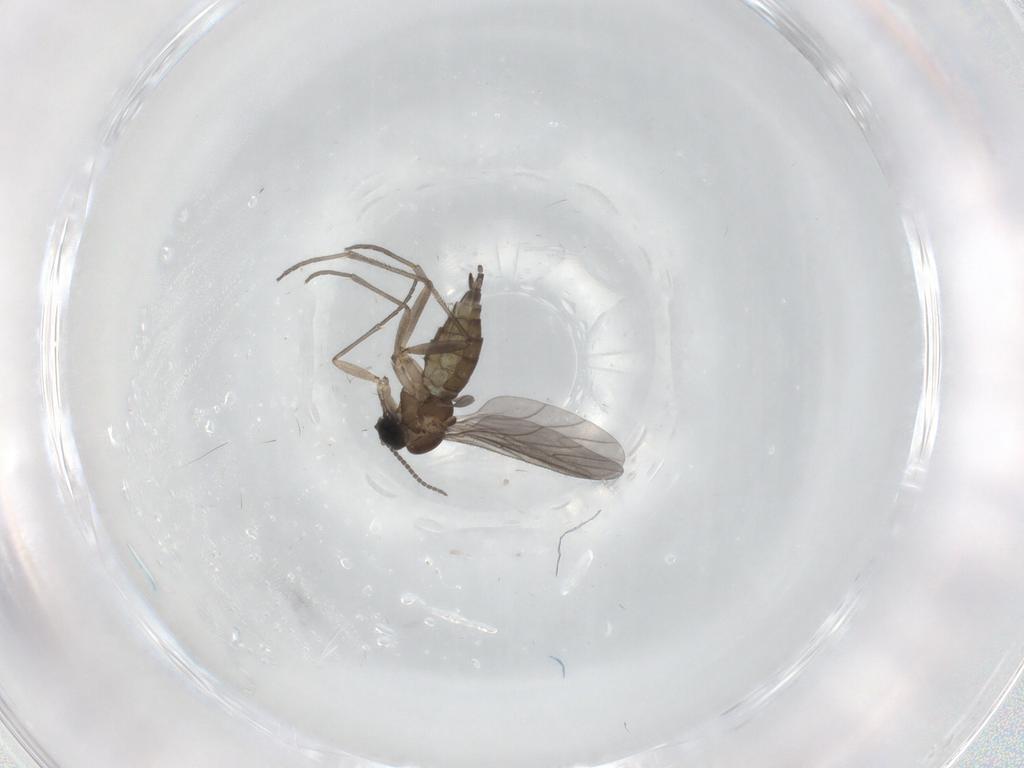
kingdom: Animalia
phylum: Arthropoda
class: Insecta
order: Diptera
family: Sciaridae
